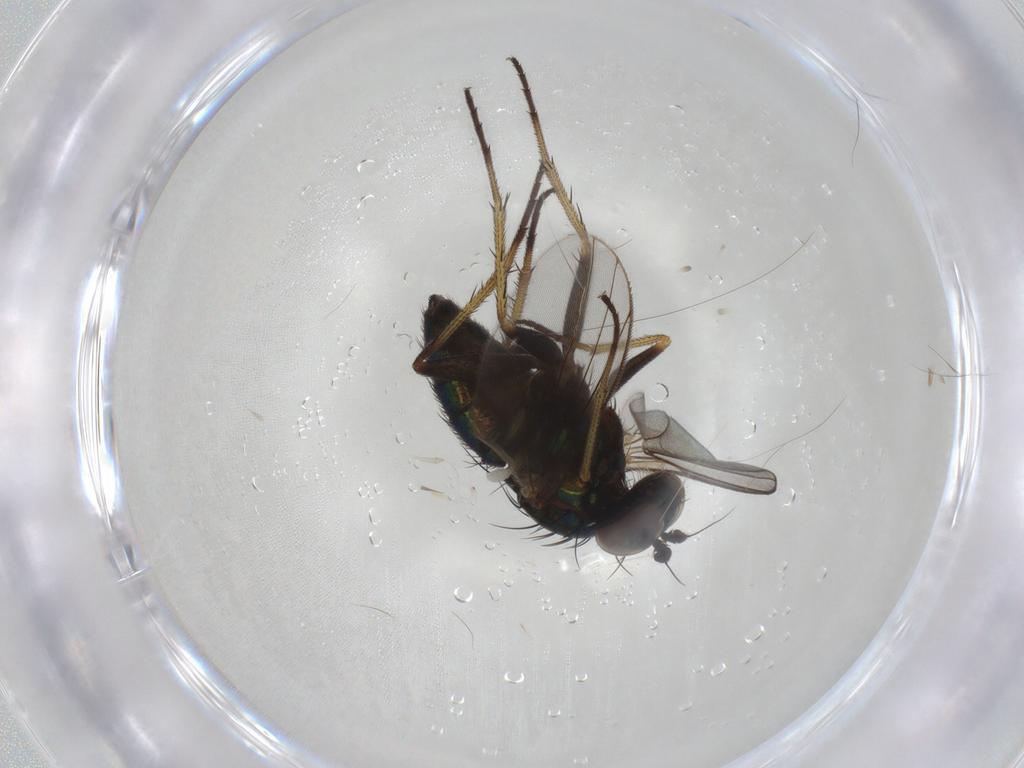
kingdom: Animalia
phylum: Arthropoda
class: Insecta
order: Diptera
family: Dolichopodidae
